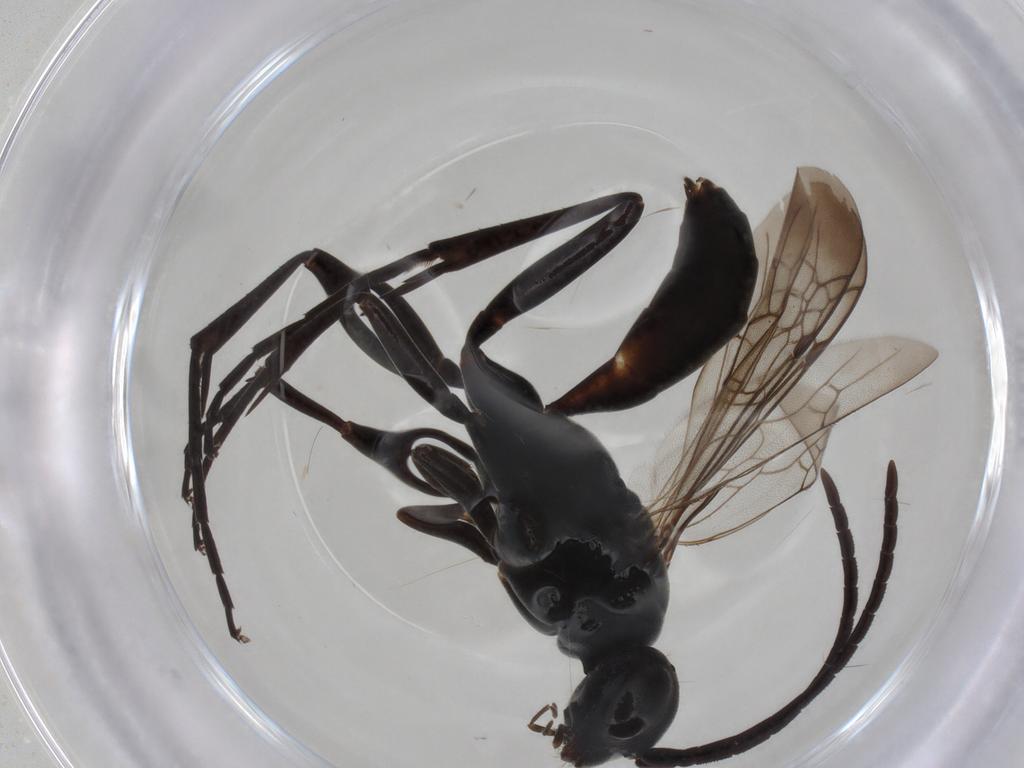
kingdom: Animalia
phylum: Arthropoda
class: Insecta
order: Hymenoptera
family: Pompilidae
